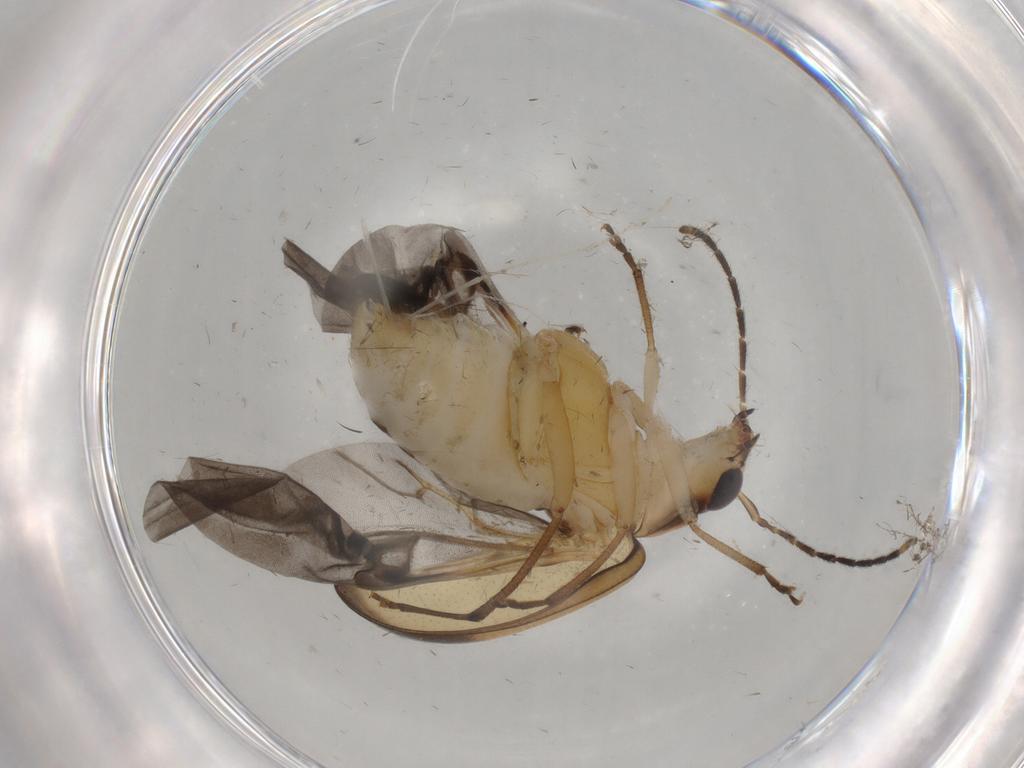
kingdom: Animalia
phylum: Arthropoda
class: Insecta
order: Coleoptera
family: Chrysomelidae
